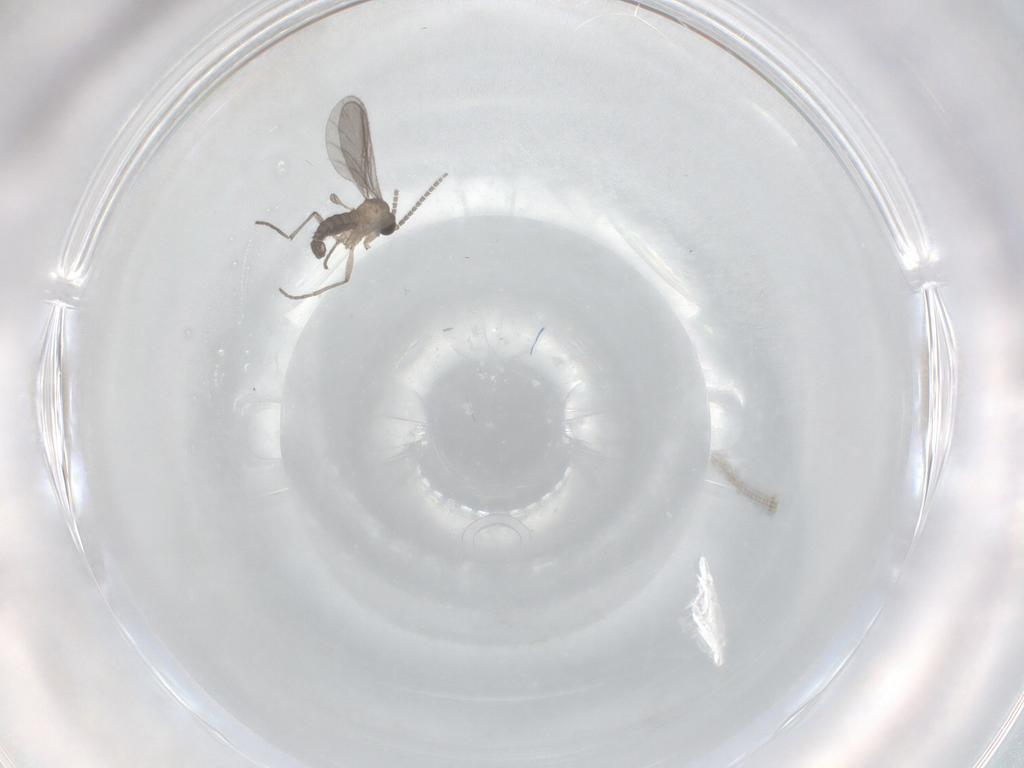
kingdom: Animalia
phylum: Arthropoda
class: Insecta
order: Diptera
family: Sciaridae
